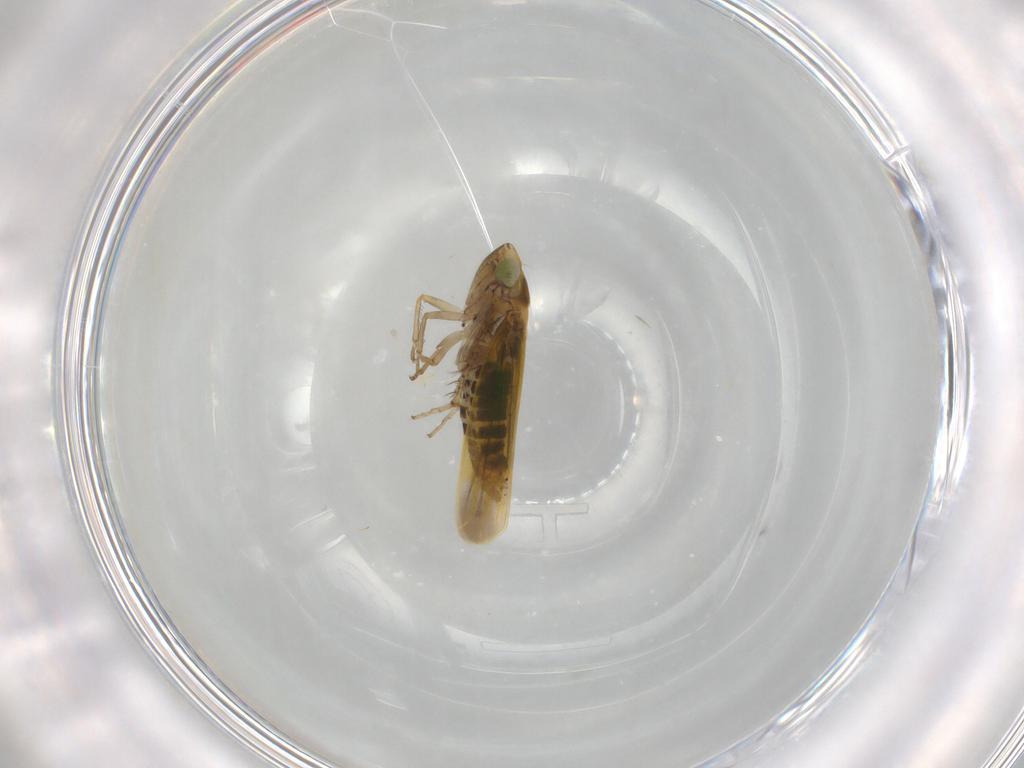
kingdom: Animalia
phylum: Arthropoda
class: Insecta
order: Hemiptera
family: Cicadellidae
